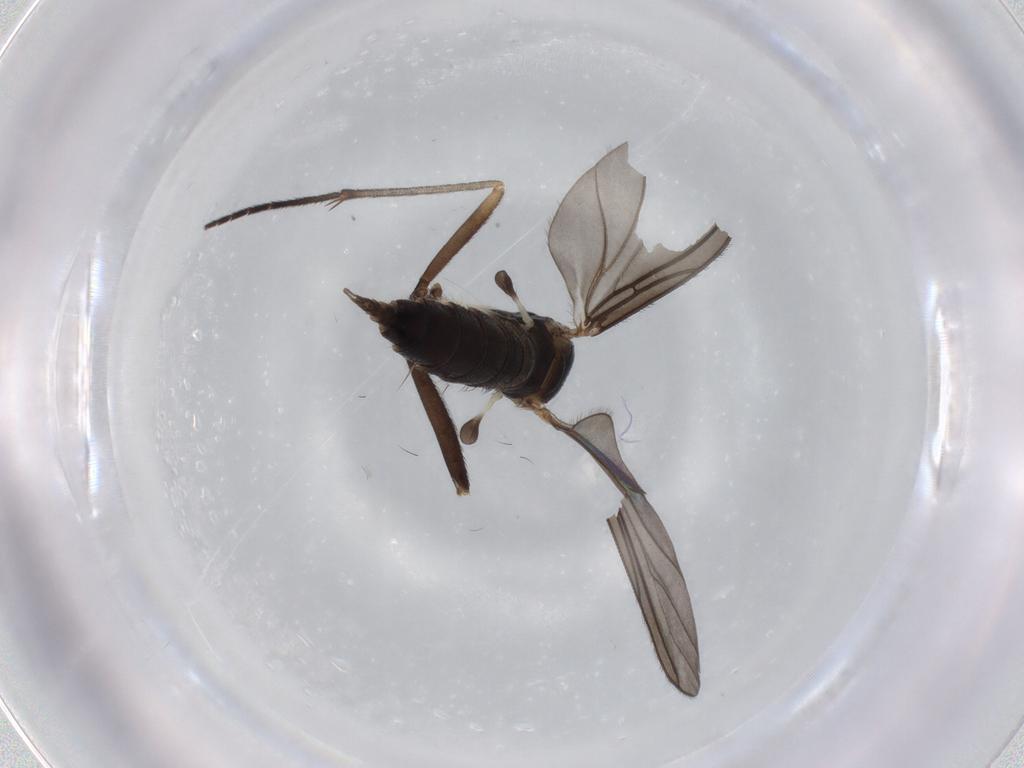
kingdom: Animalia
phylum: Arthropoda
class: Insecta
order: Diptera
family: Sciaridae
